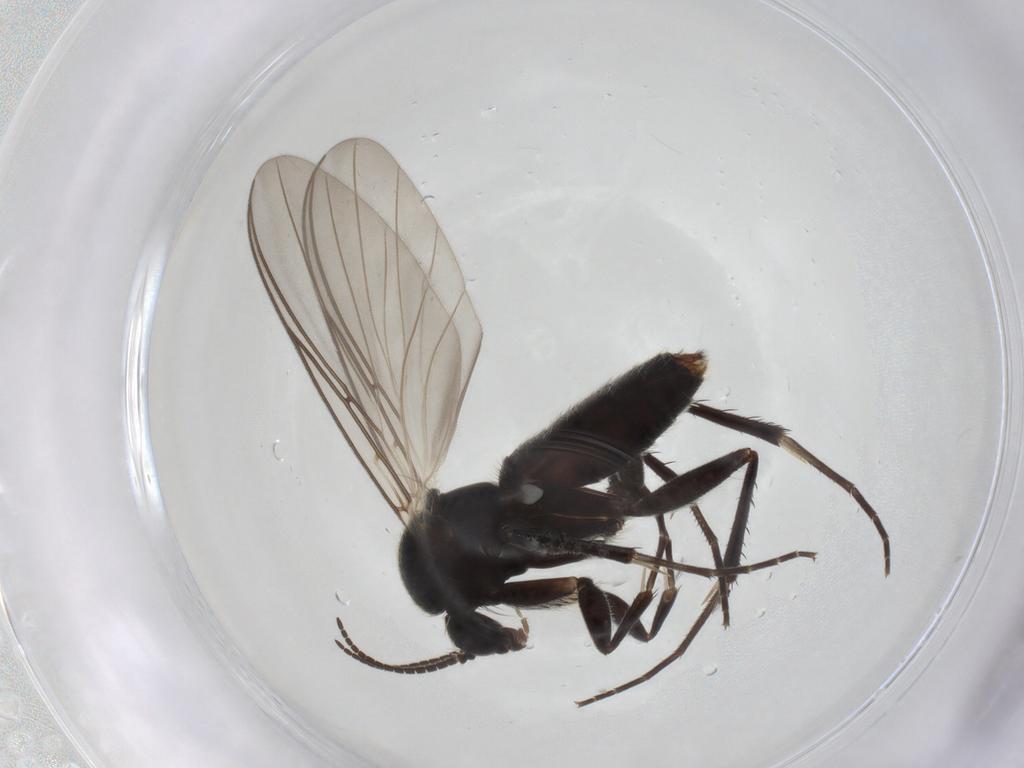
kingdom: Animalia
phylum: Arthropoda
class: Insecta
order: Diptera
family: Mycetophilidae
